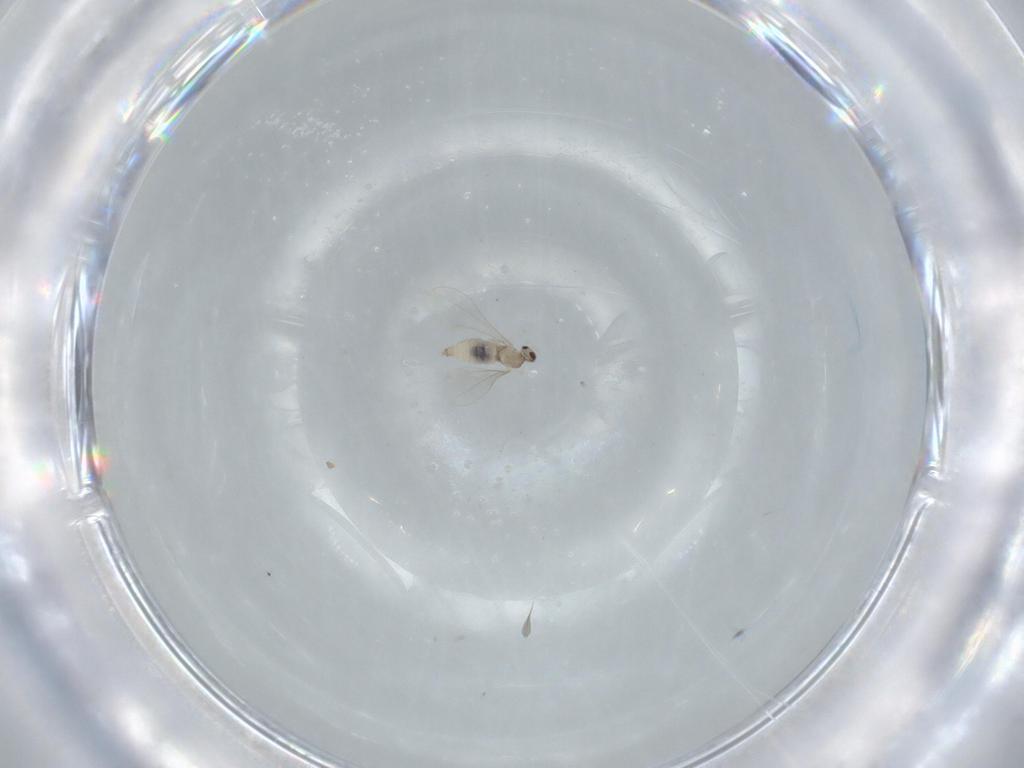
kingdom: Animalia
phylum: Arthropoda
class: Insecta
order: Diptera
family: Cecidomyiidae
